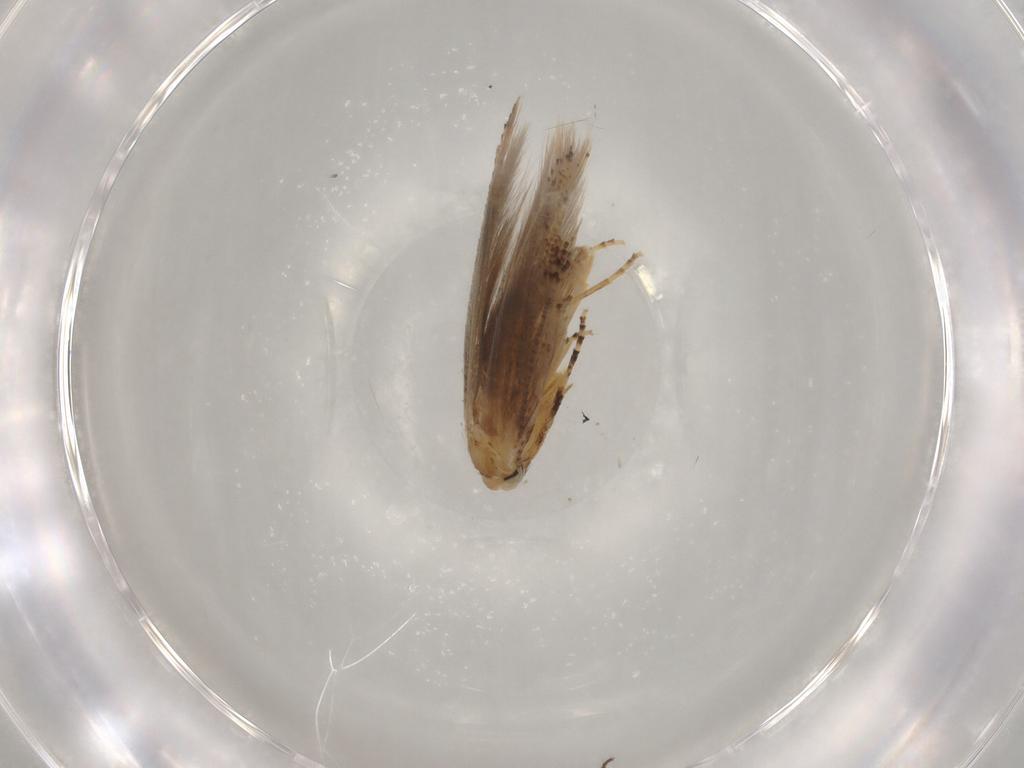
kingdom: Animalia
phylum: Arthropoda
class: Insecta
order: Lepidoptera
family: Bucculatricidae
